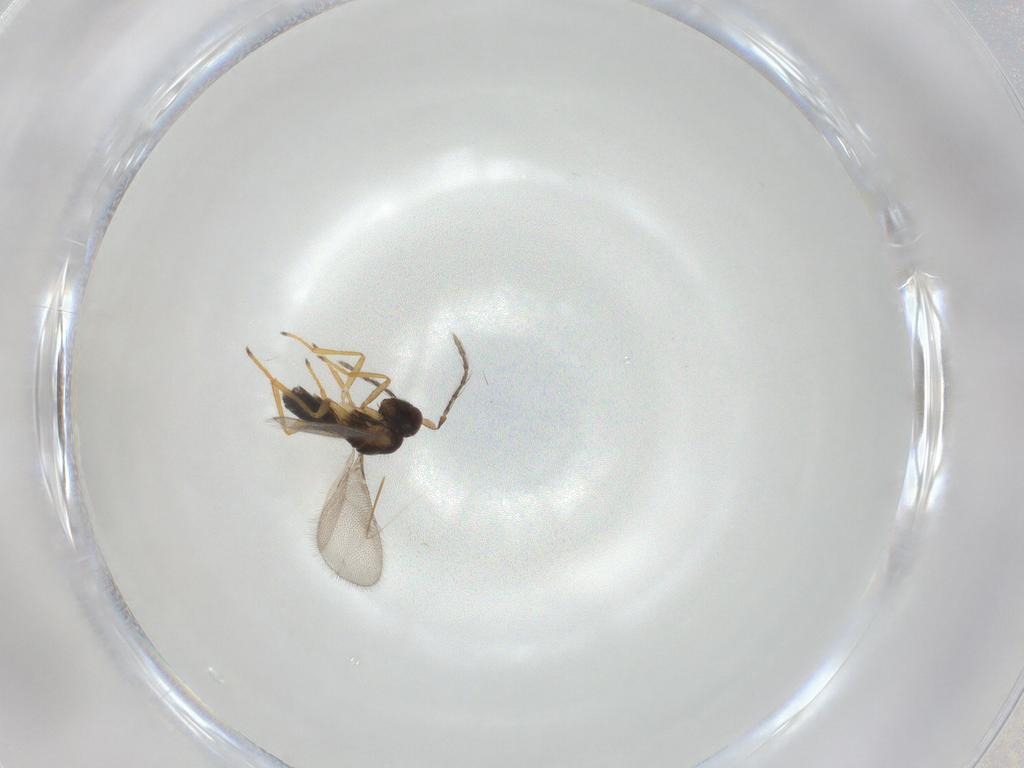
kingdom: Animalia
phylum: Arthropoda
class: Insecta
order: Hymenoptera
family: Eulophidae
